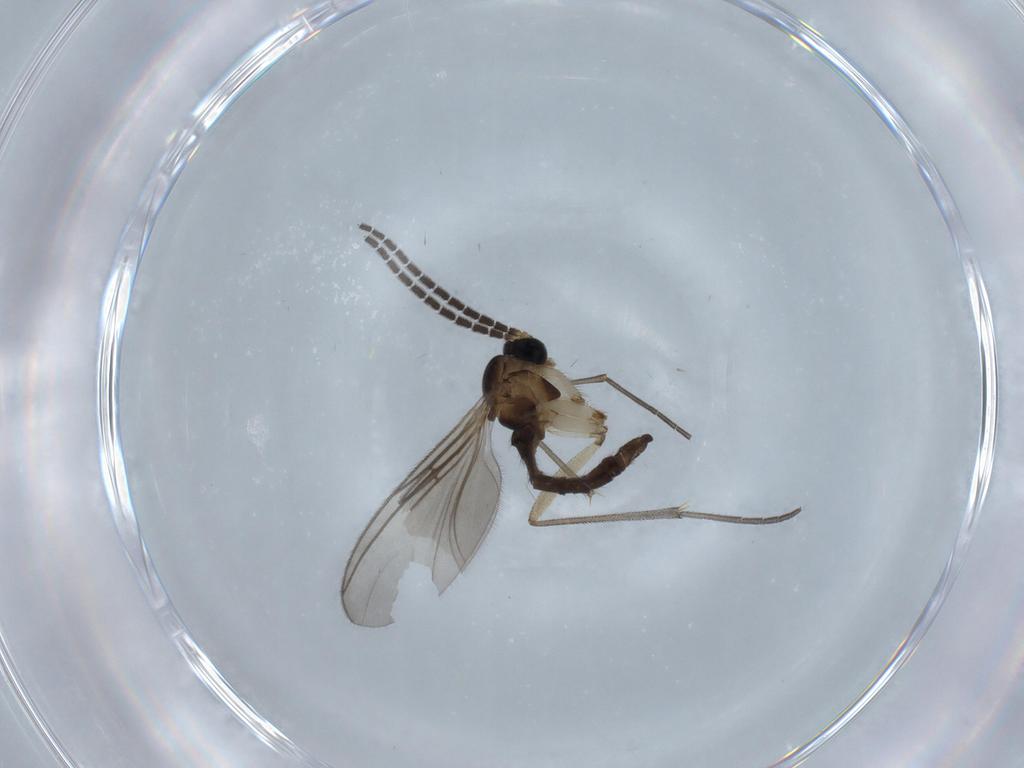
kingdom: Animalia
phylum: Arthropoda
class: Insecta
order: Diptera
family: Sciaridae
